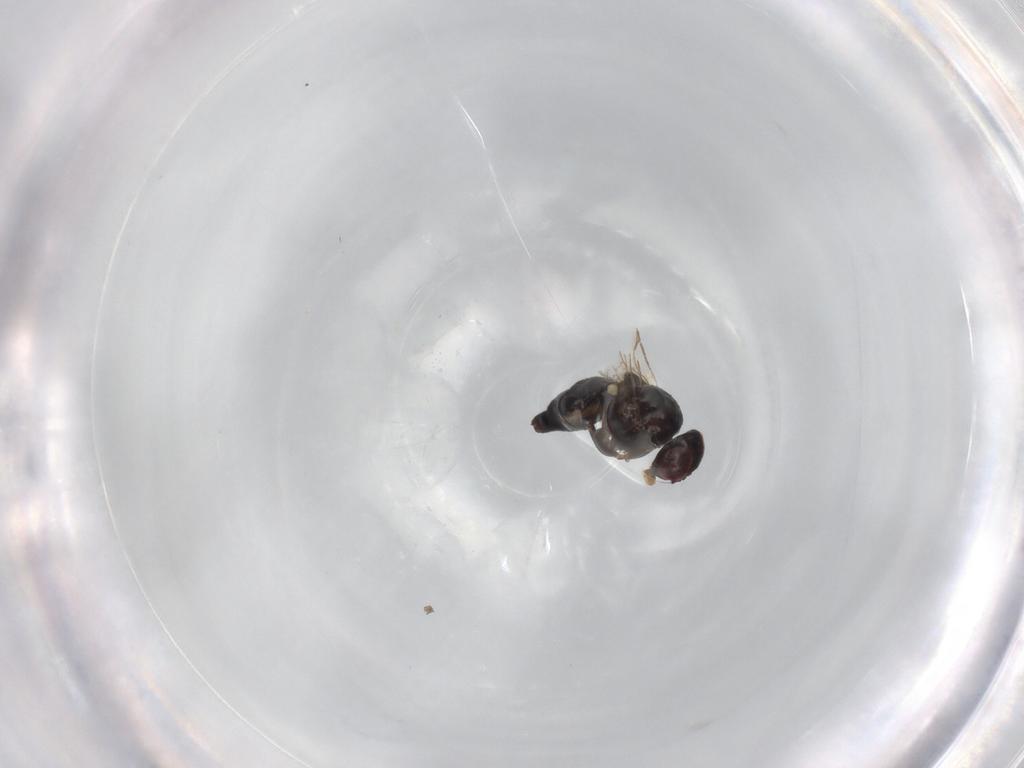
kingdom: Animalia
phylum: Arthropoda
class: Insecta
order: Diptera
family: Agromyzidae
